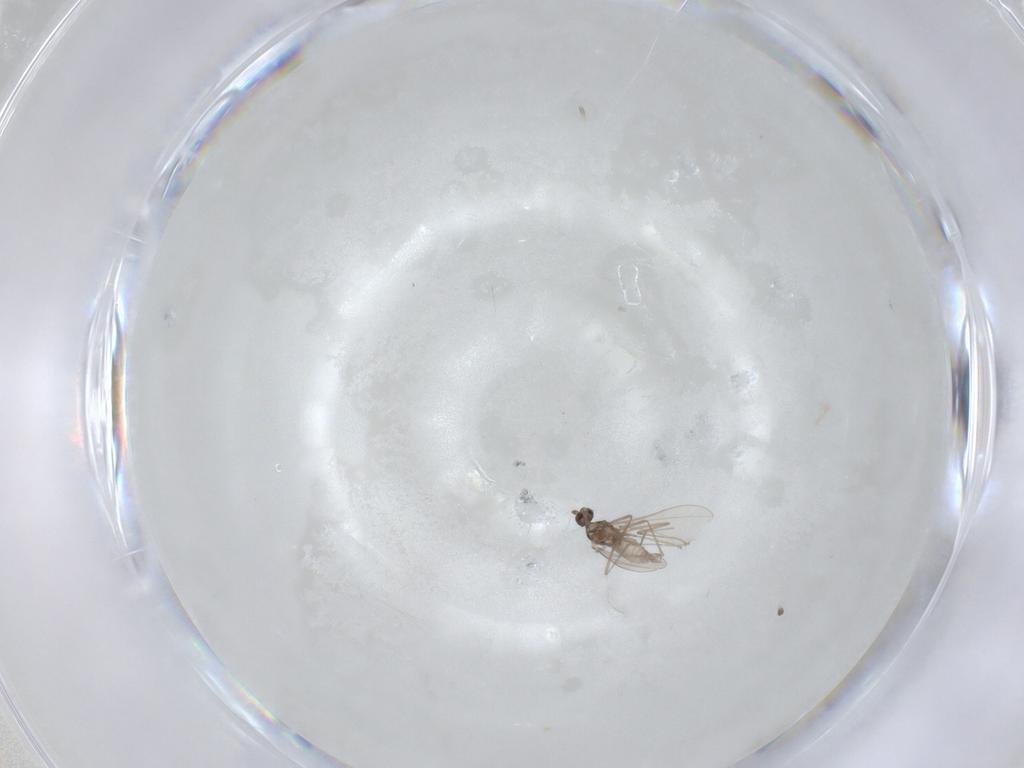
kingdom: Animalia
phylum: Arthropoda
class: Insecta
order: Diptera
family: Cecidomyiidae
